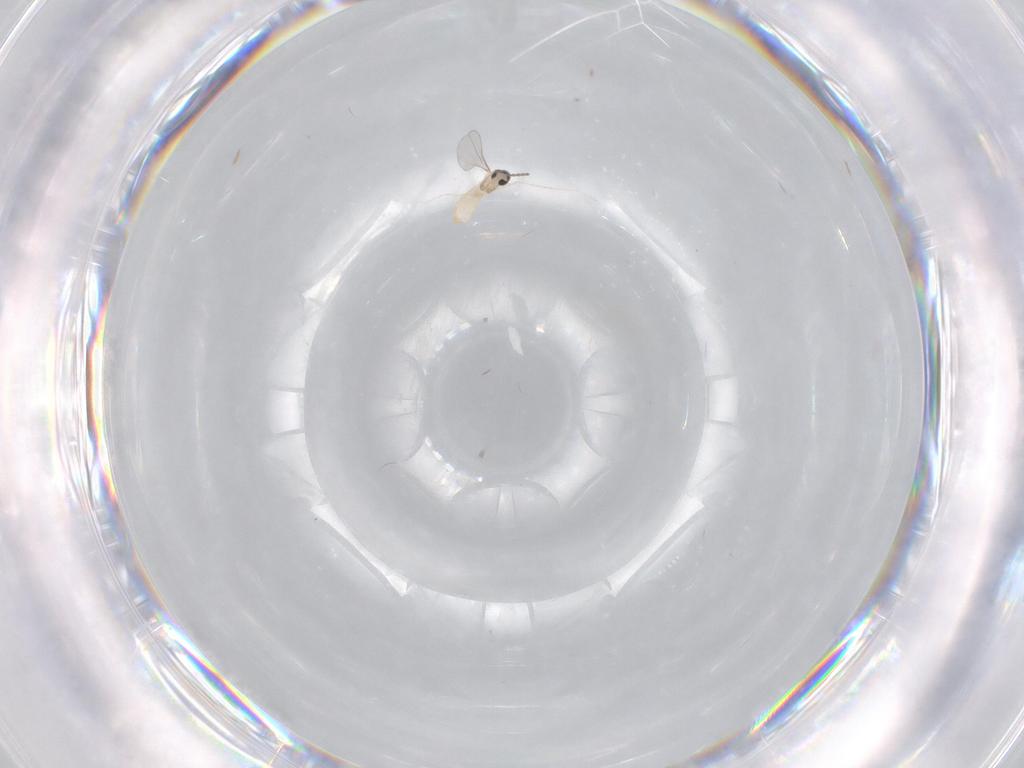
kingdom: Animalia
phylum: Arthropoda
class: Insecta
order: Diptera
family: Cecidomyiidae
